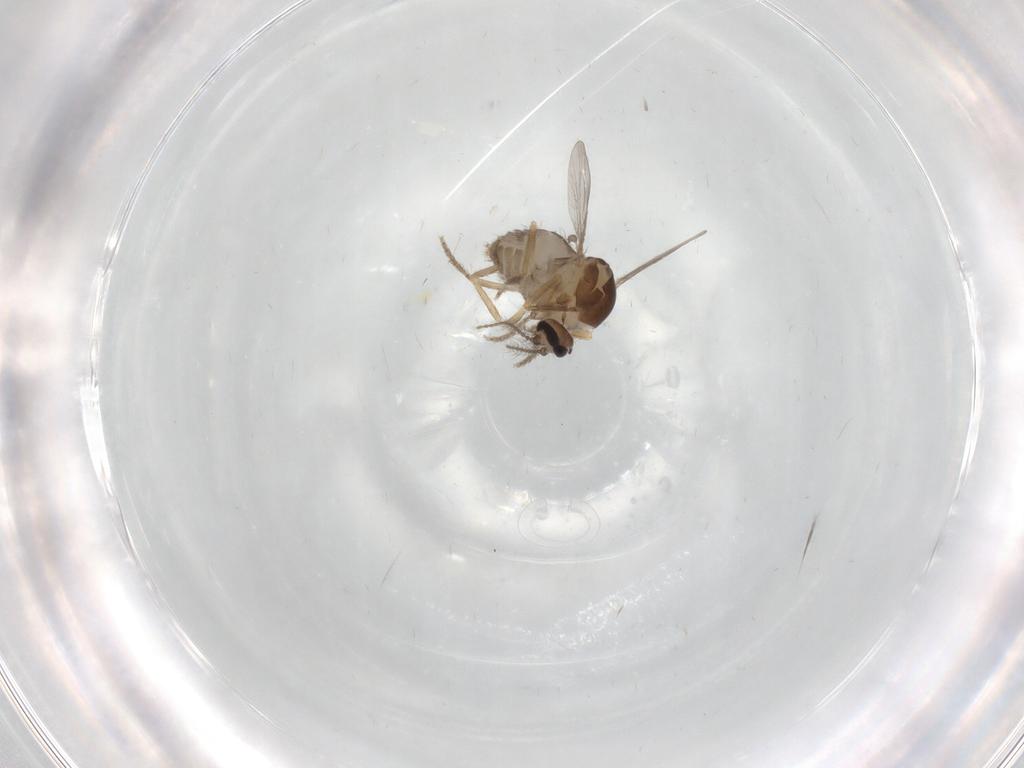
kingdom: Animalia
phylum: Arthropoda
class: Insecta
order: Diptera
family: Ceratopogonidae
